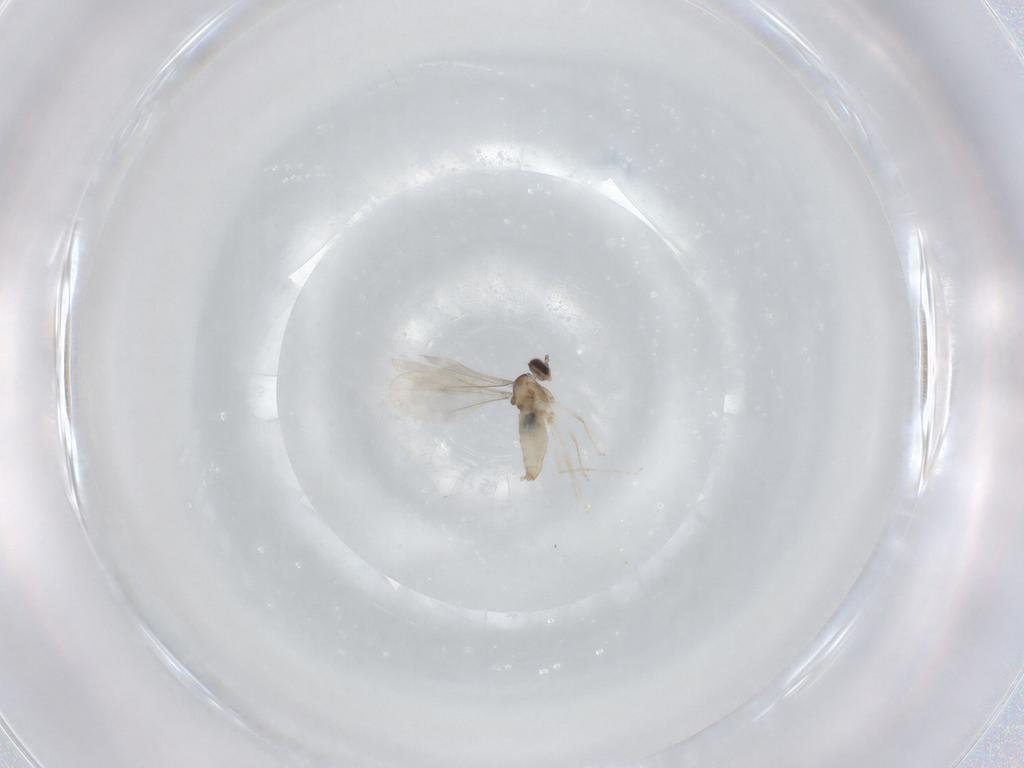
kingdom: Animalia
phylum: Arthropoda
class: Insecta
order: Diptera
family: Cecidomyiidae
